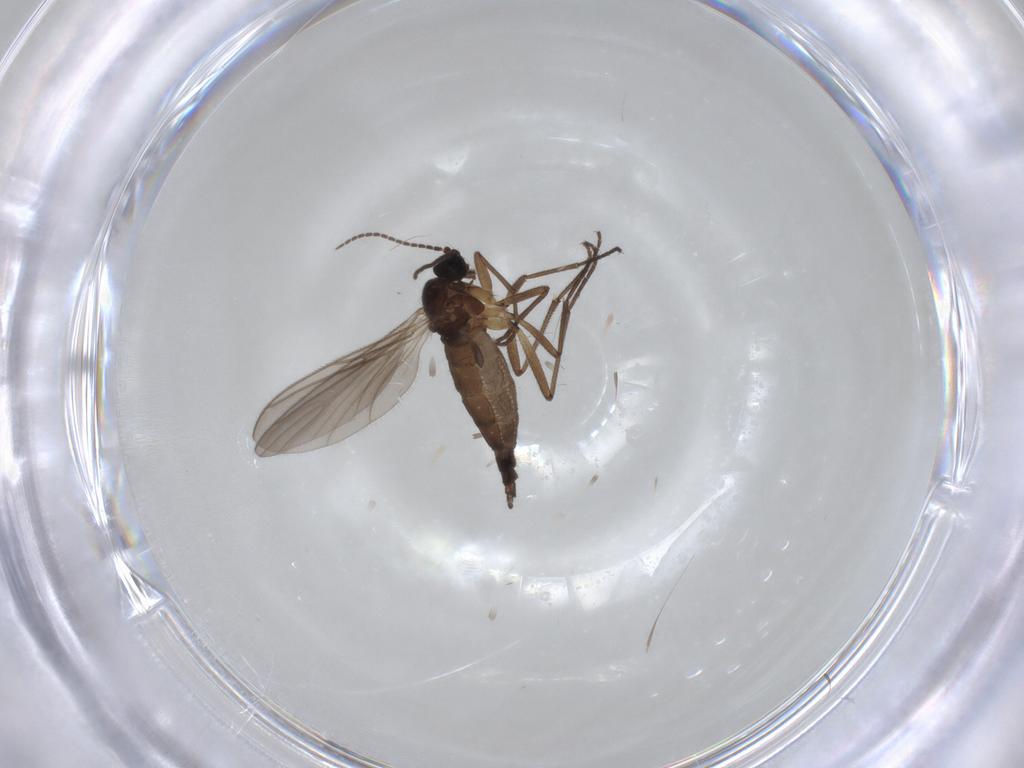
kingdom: Animalia
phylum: Arthropoda
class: Insecta
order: Diptera
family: Sciaridae
